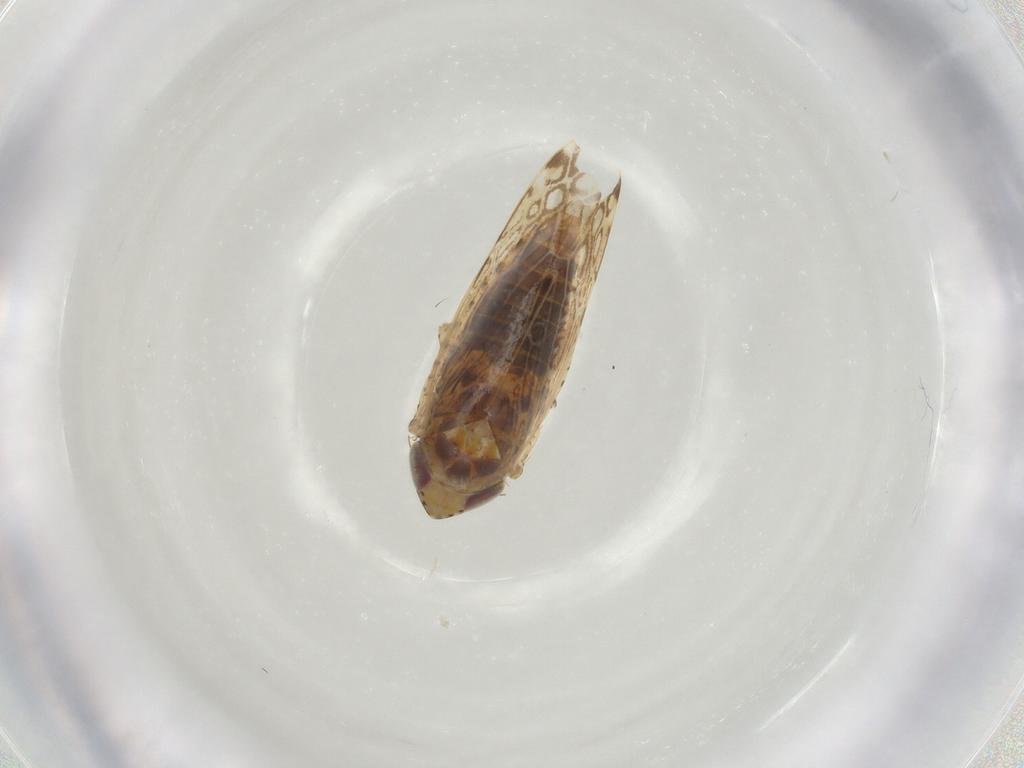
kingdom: Animalia
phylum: Arthropoda
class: Insecta
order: Hemiptera
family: Cicadellidae
